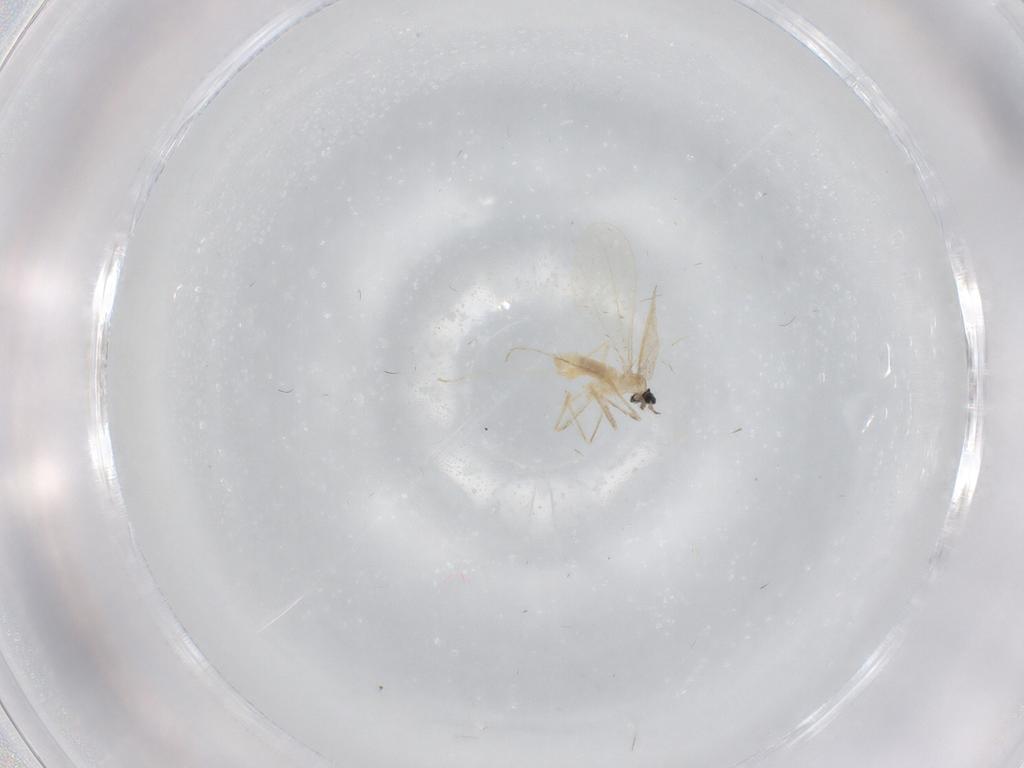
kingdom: Animalia
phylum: Arthropoda
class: Insecta
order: Diptera
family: Cecidomyiidae
